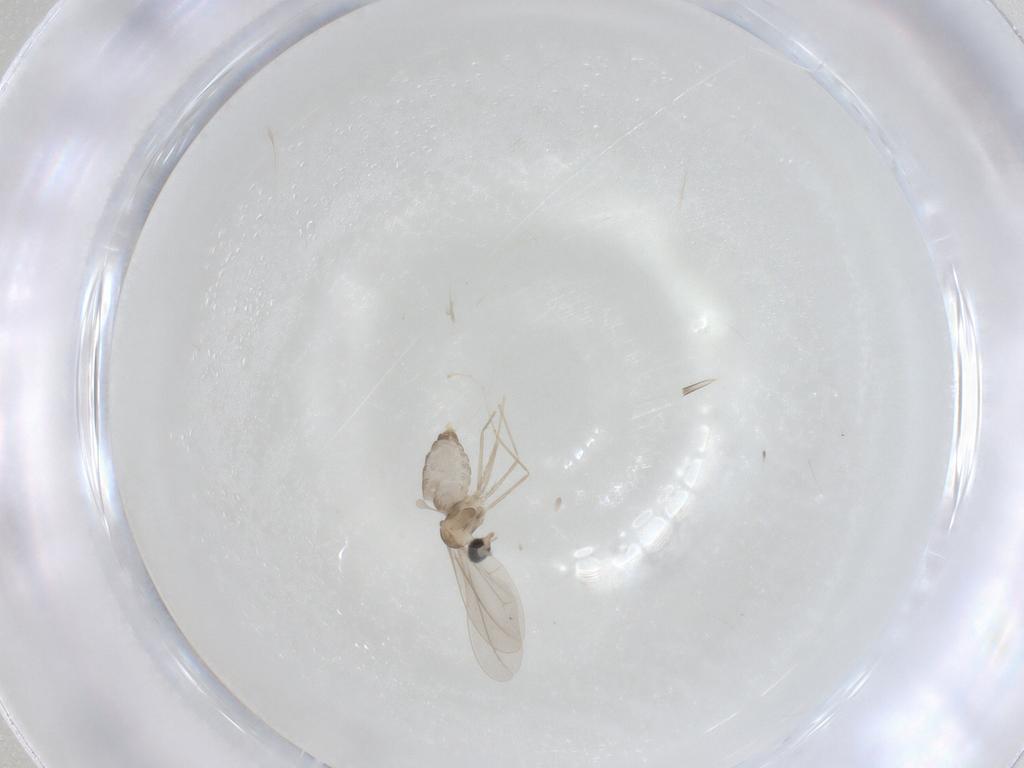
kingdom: Animalia
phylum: Arthropoda
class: Insecta
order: Diptera
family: Cecidomyiidae
